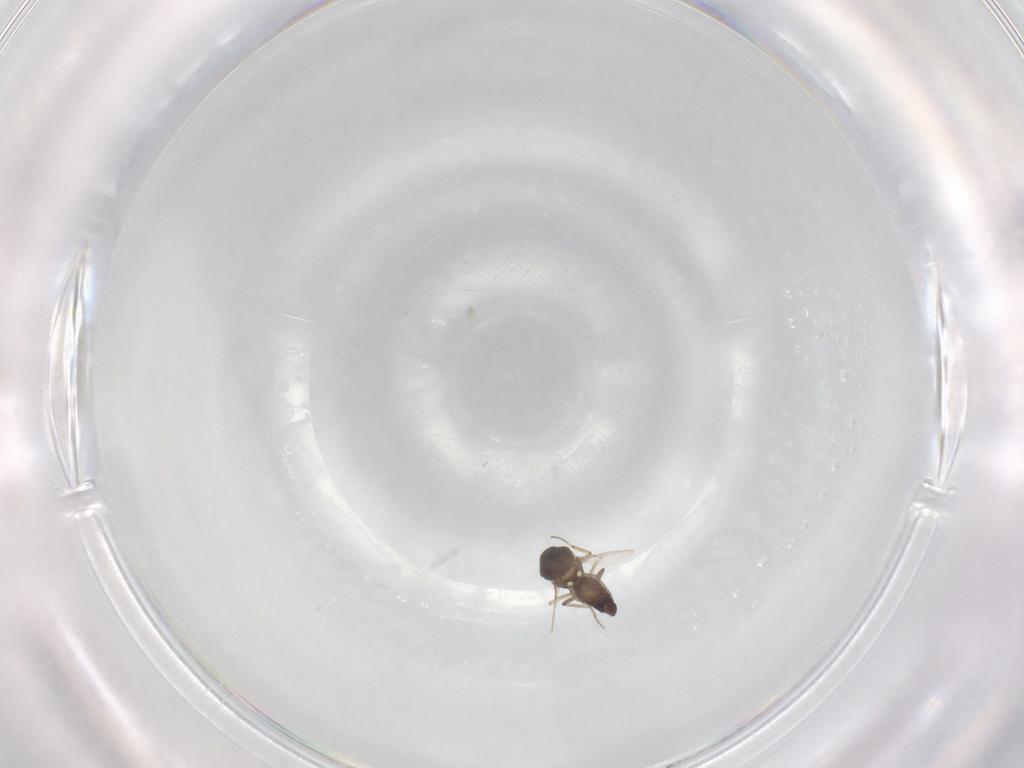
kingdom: Animalia
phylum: Arthropoda
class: Insecta
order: Diptera
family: Ceratopogonidae
